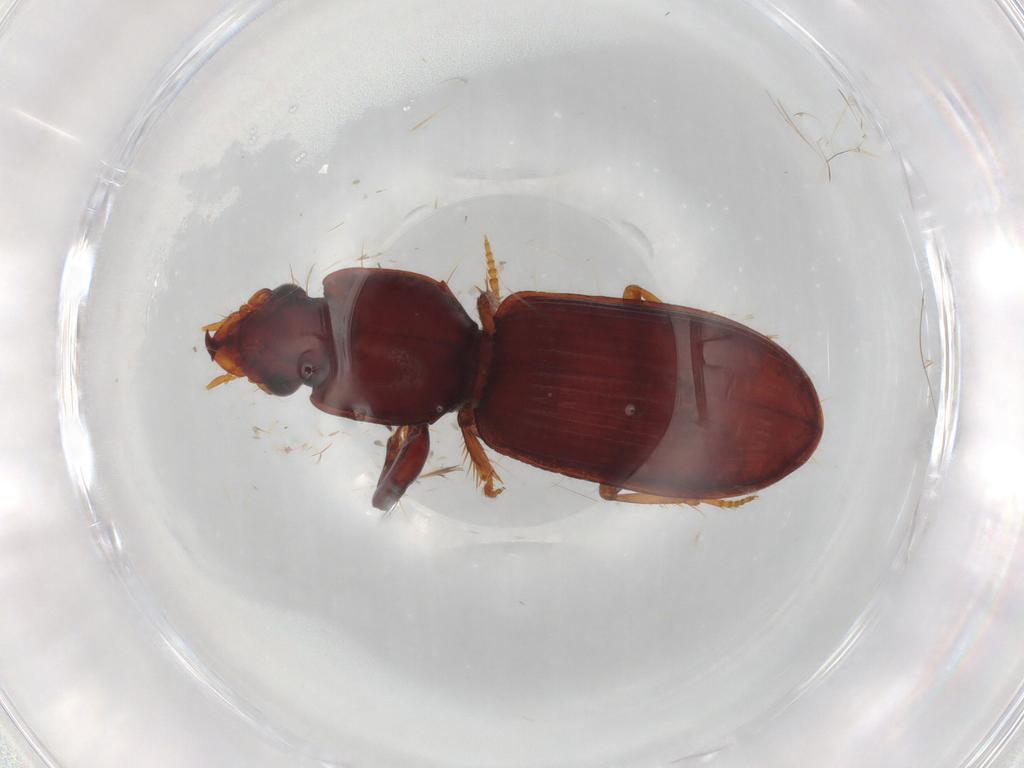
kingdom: Animalia
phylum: Arthropoda
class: Insecta
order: Coleoptera
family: Carabidae
